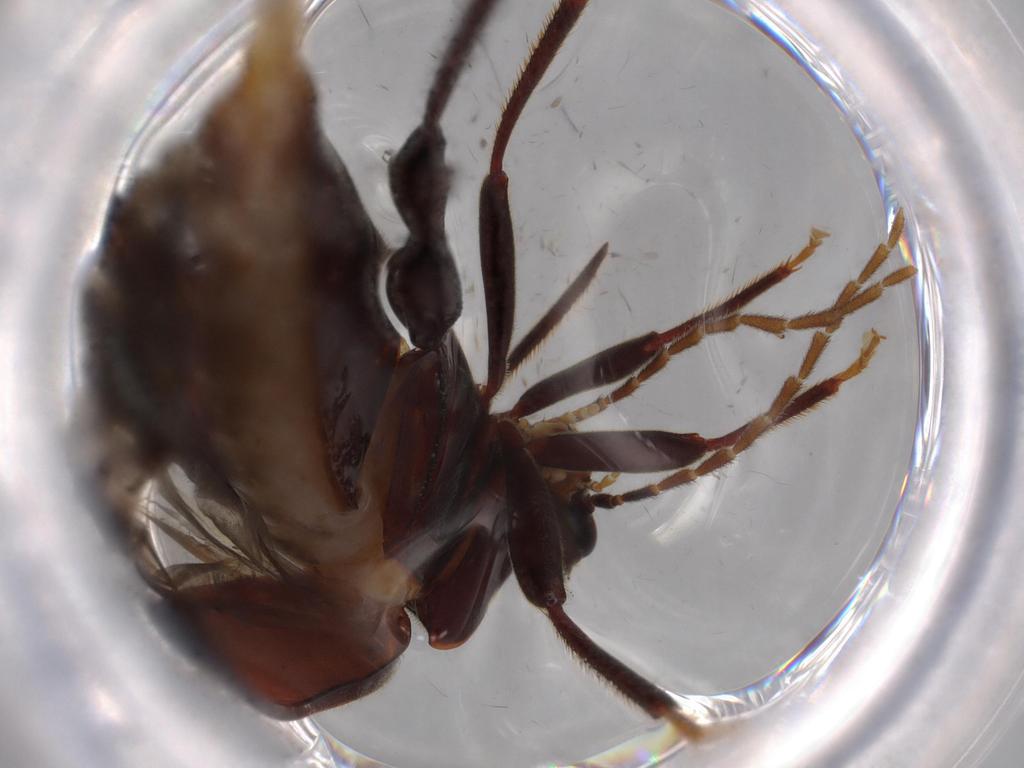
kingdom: Animalia
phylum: Arthropoda
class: Insecta
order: Coleoptera
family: Ptilodactylidae
